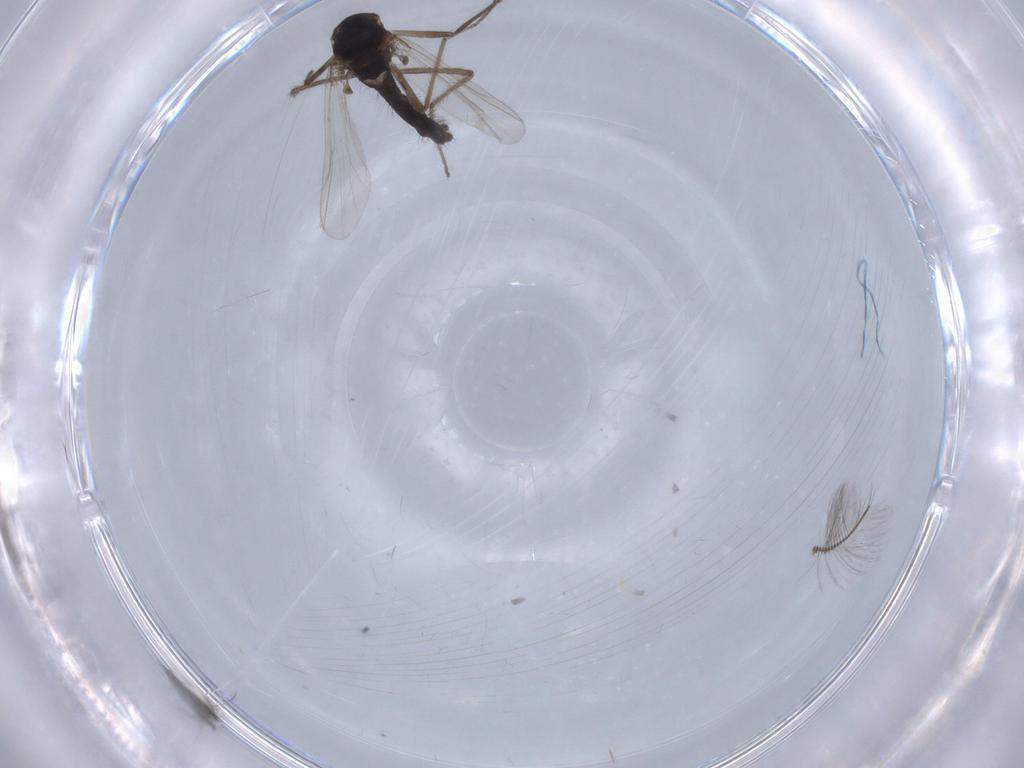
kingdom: Animalia
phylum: Arthropoda
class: Insecta
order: Diptera
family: Chironomidae
